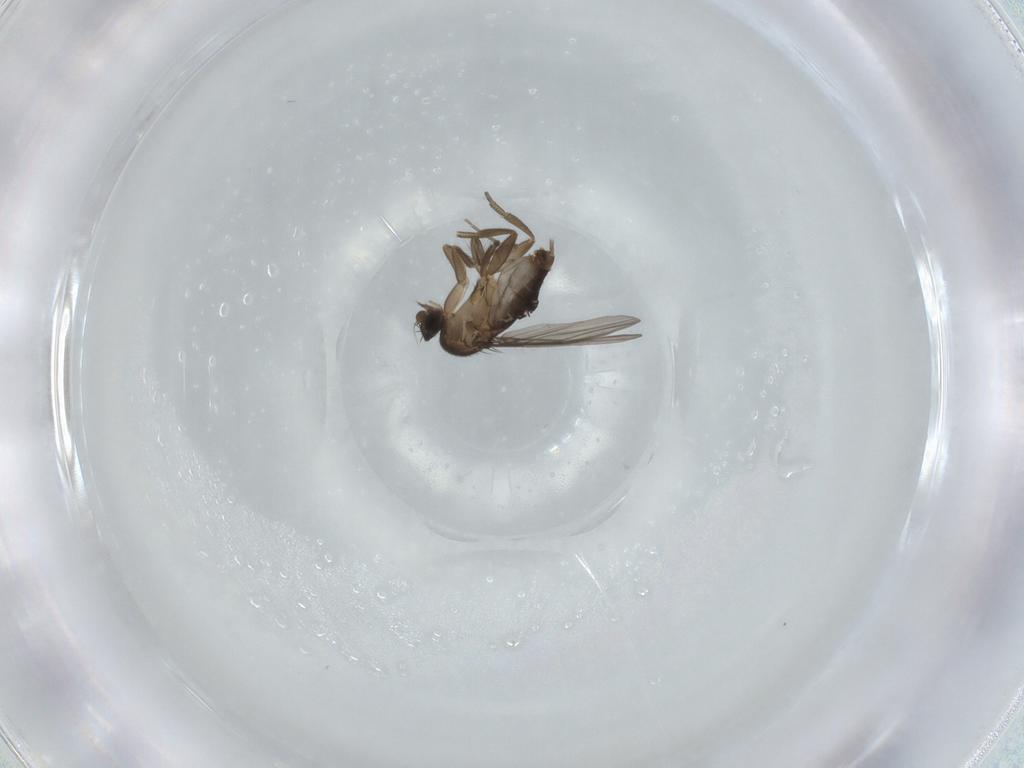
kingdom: Animalia
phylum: Arthropoda
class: Insecta
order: Diptera
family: Phoridae
